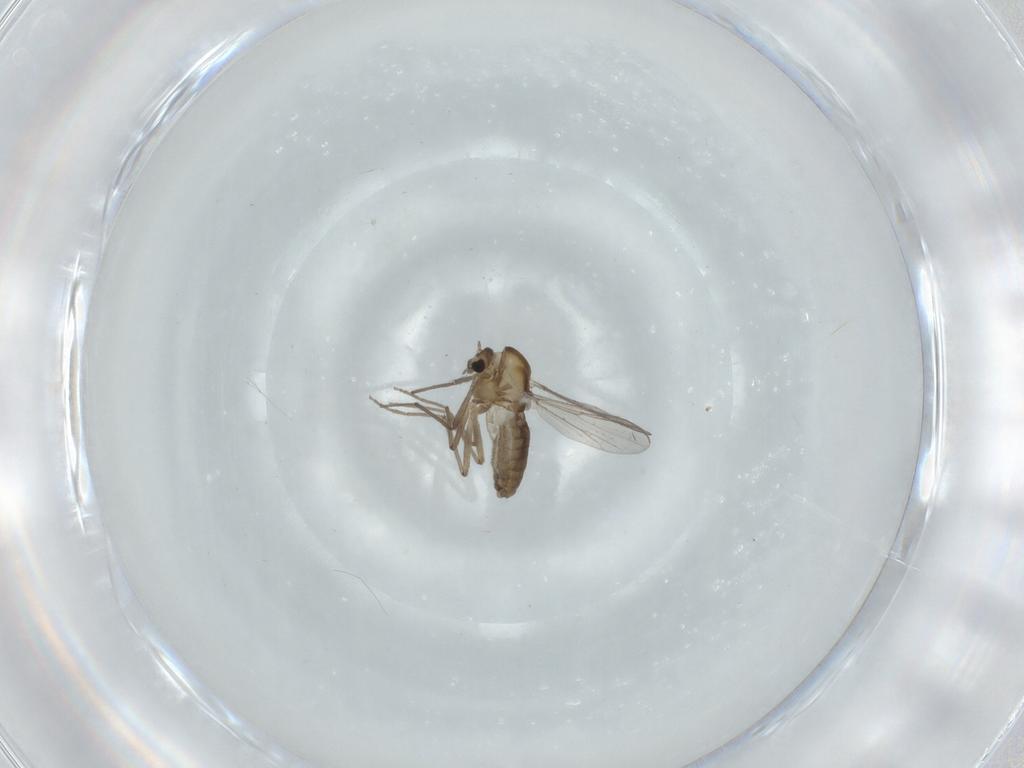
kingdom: Animalia
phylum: Arthropoda
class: Insecta
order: Diptera
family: Chironomidae
